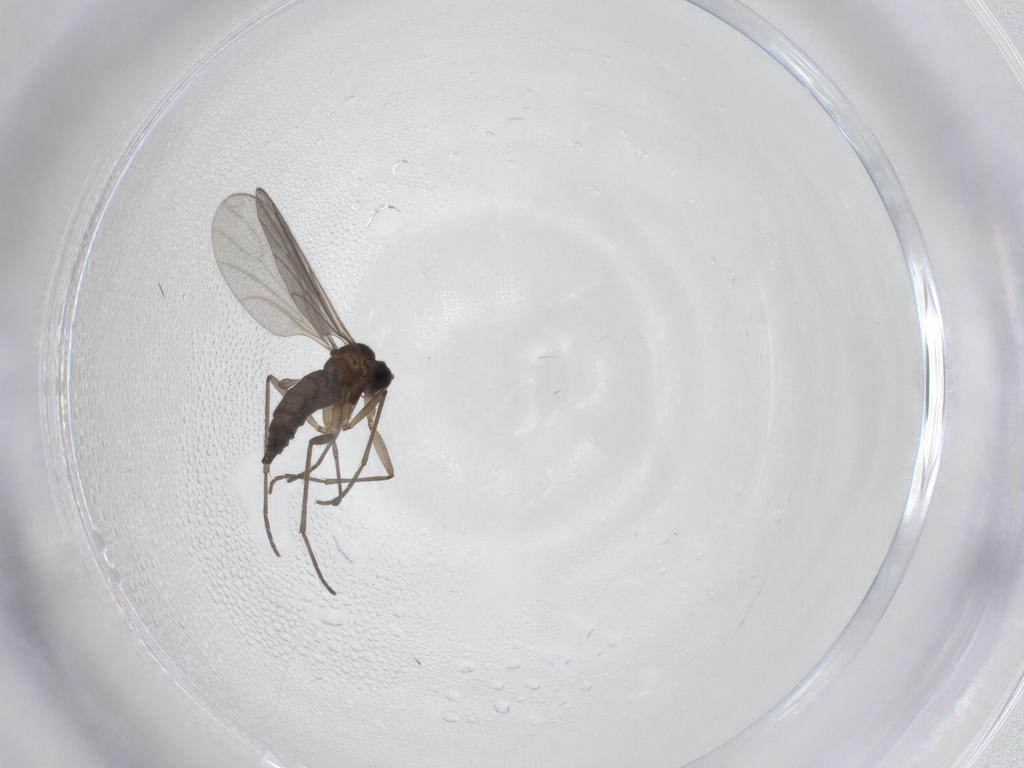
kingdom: Animalia
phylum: Arthropoda
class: Insecta
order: Diptera
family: Sciaridae
